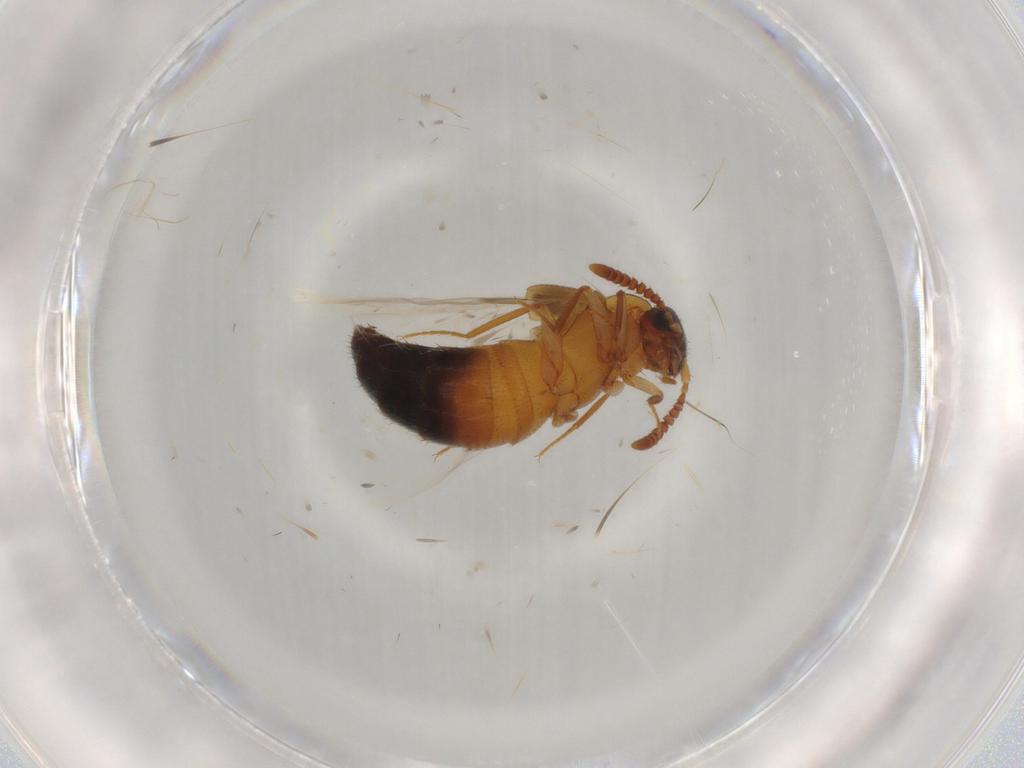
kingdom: Animalia
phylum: Arthropoda
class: Insecta
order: Coleoptera
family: Staphylinidae
